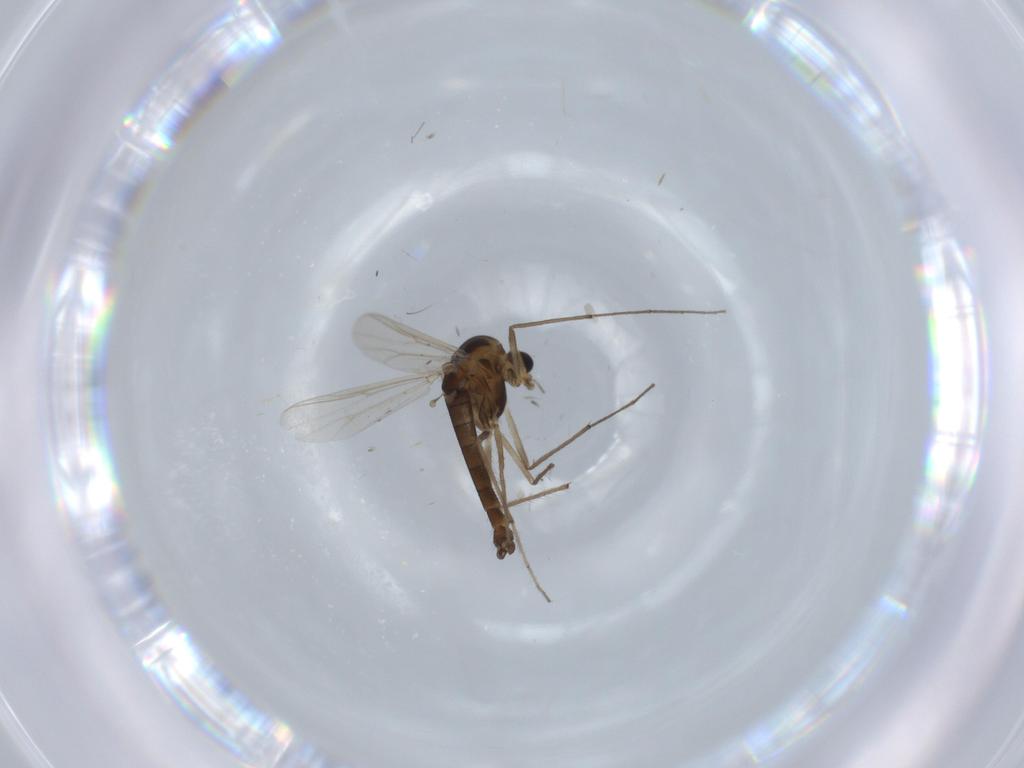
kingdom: Animalia
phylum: Arthropoda
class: Insecta
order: Diptera
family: Chironomidae
